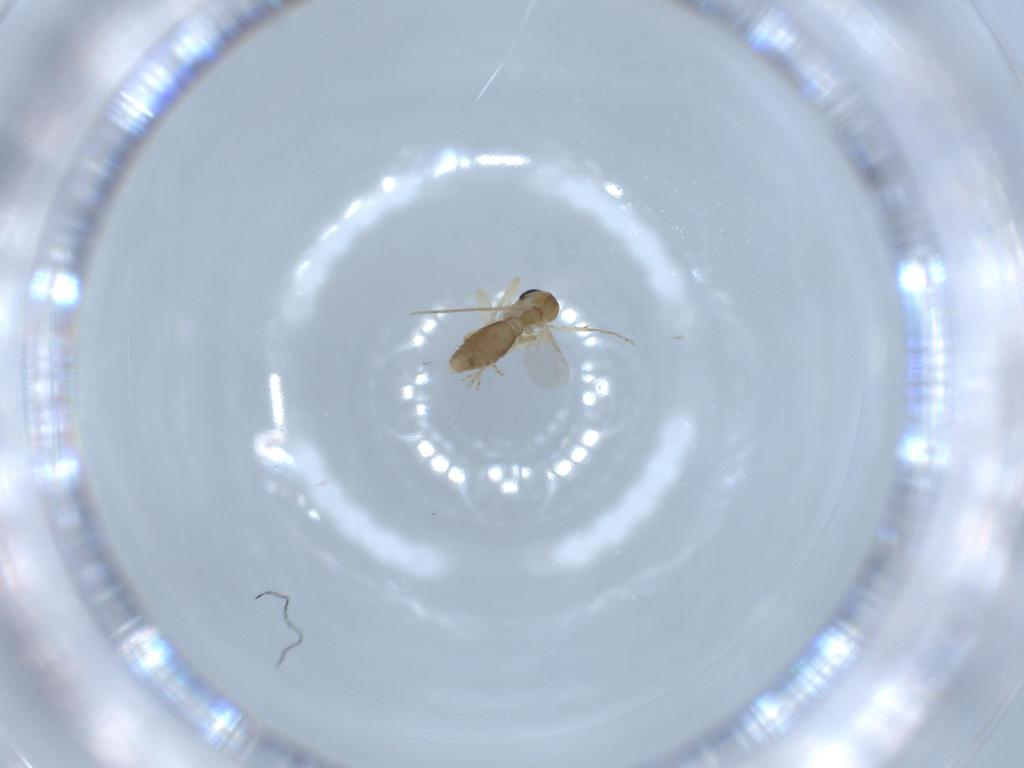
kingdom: Animalia
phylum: Arthropoda
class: Insecta
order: Diptera
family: Ceratopogonidae
